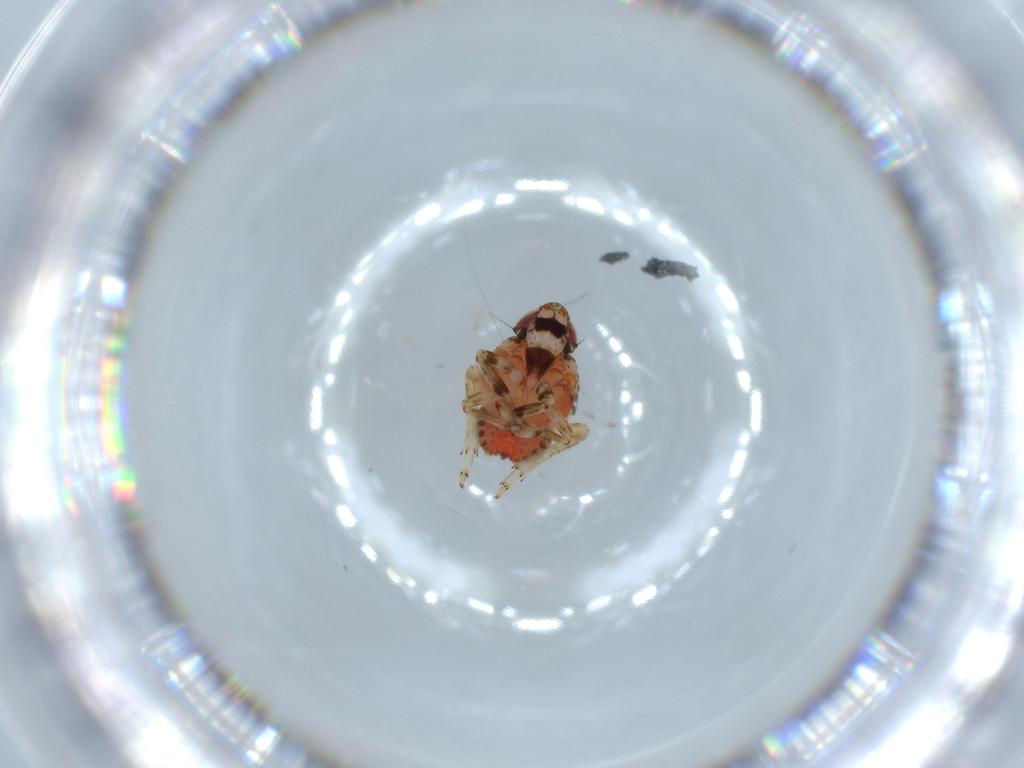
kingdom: Animalia
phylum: Arthropoda
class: Insecta
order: Hemiptera
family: Issidae
